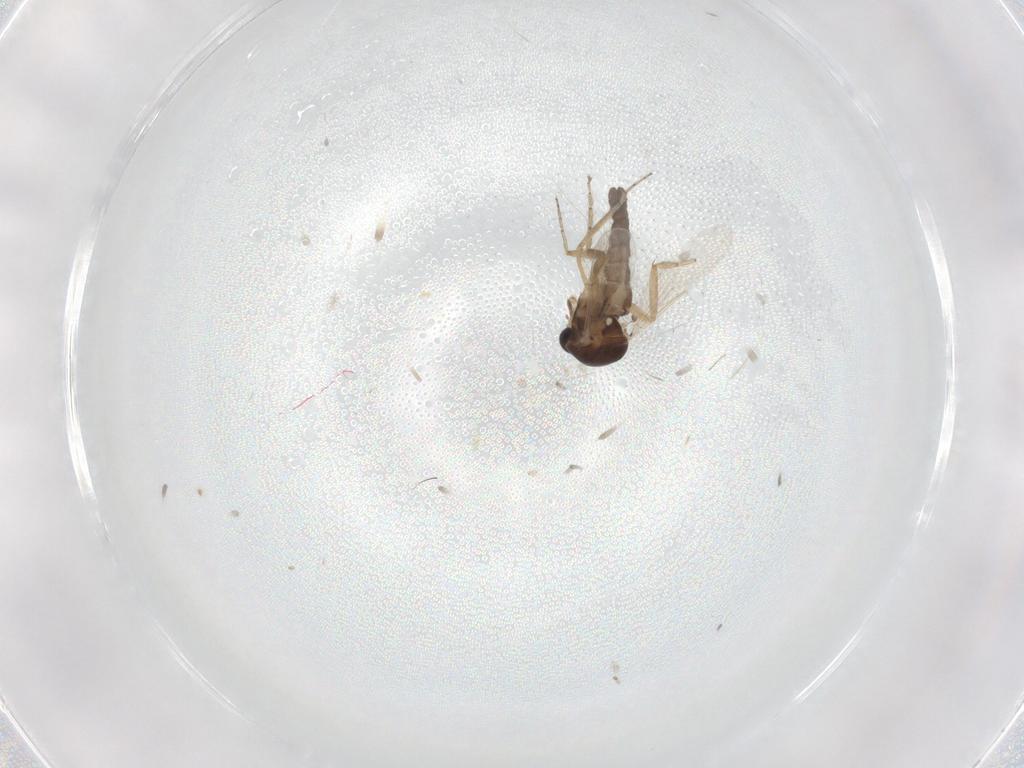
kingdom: Animalia
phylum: Arthropoda
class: Insecta
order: Diptera
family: Ceratopogonidae
